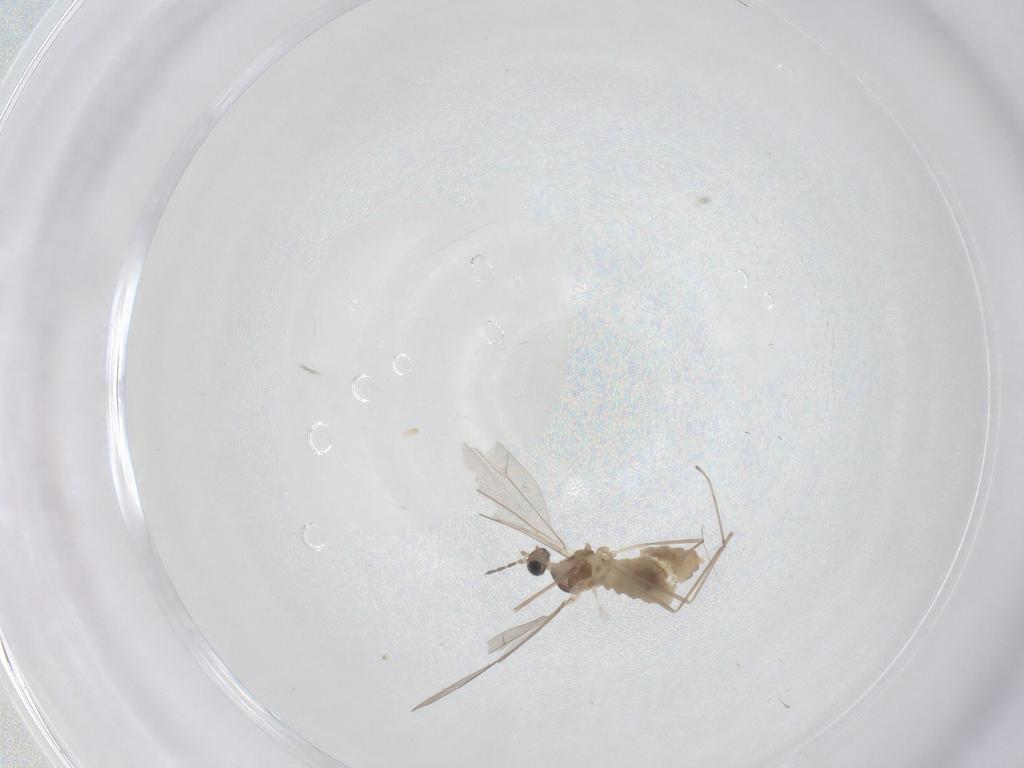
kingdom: Animalia
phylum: Arthropoda
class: Insecta
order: Diptera
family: Cecidomyiidae
